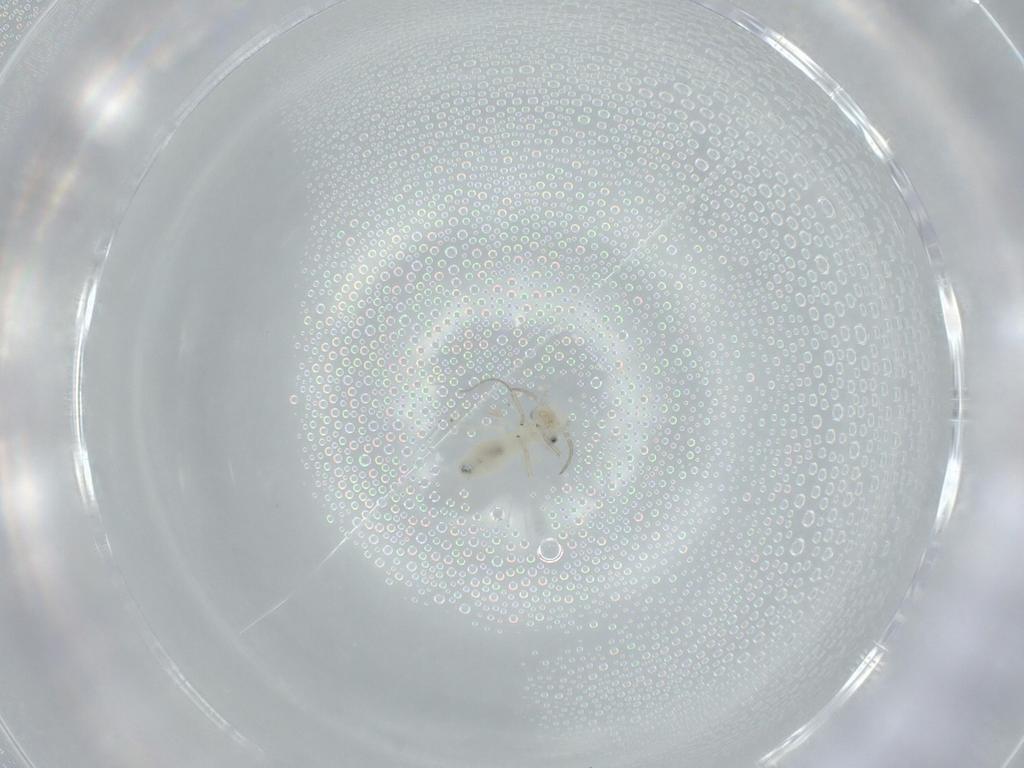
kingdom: Animalia
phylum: Arthropoda
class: Insecta
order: Psocodea
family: Caeciliusidae
